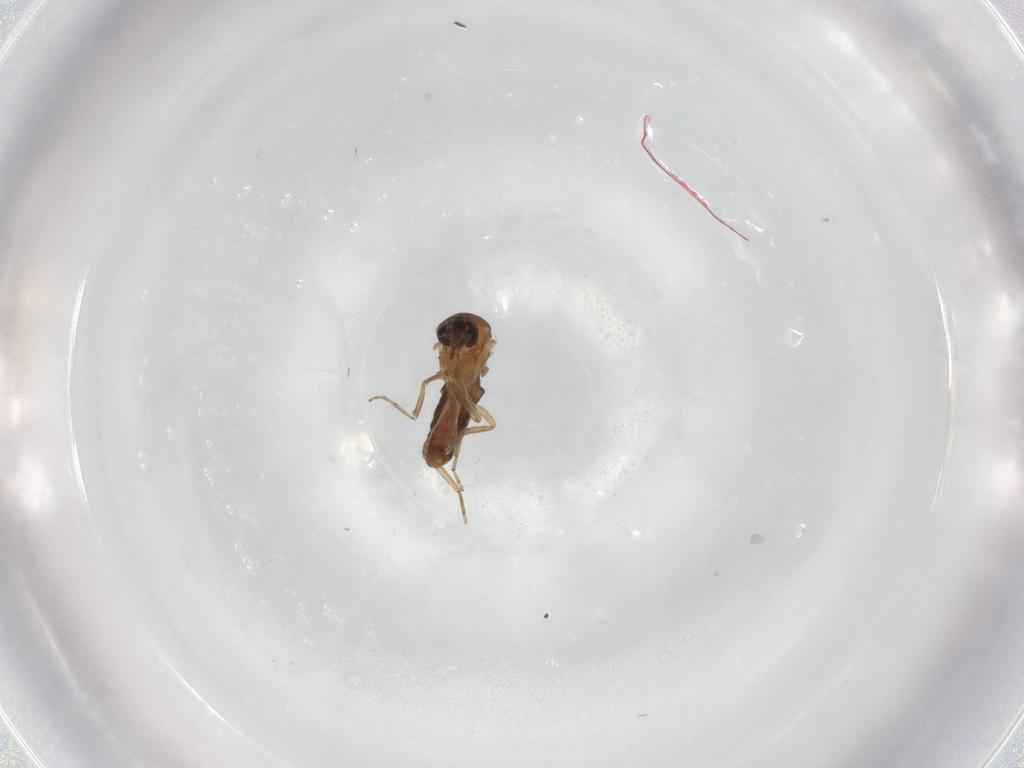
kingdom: Animalia
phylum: Arthropoda
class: Insecta
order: Diptera
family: Ceratopogonidae
